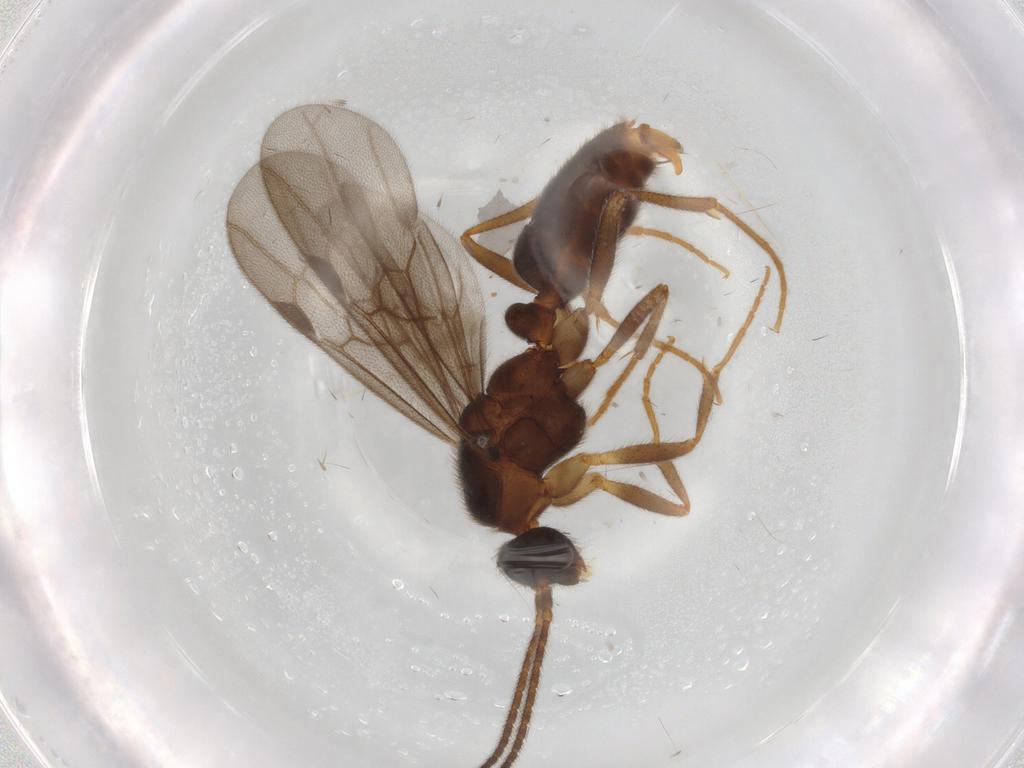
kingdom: Animalia
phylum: Arthropoda
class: Insecta
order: Hymenoptera
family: Formicidae
